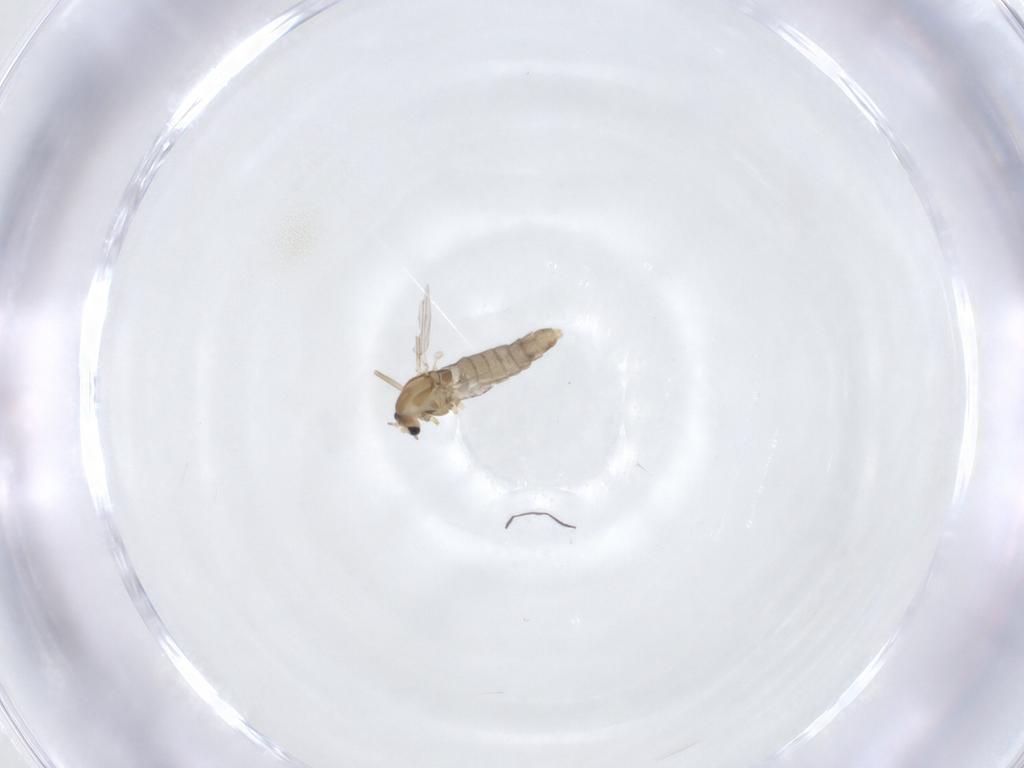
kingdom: Animalia
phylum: Arthropoda
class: Insecta
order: Diptera
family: Chironomidae
